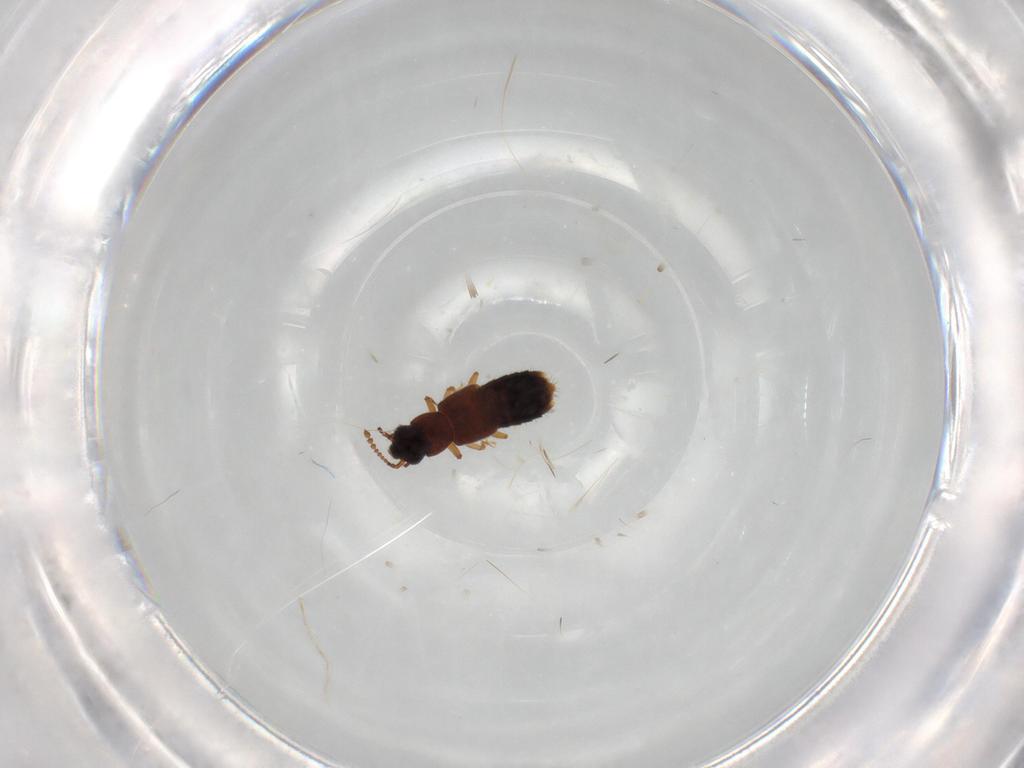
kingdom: Animalia
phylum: Arthropoda
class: Insecta
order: Coleoptera
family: Staphylinidae
